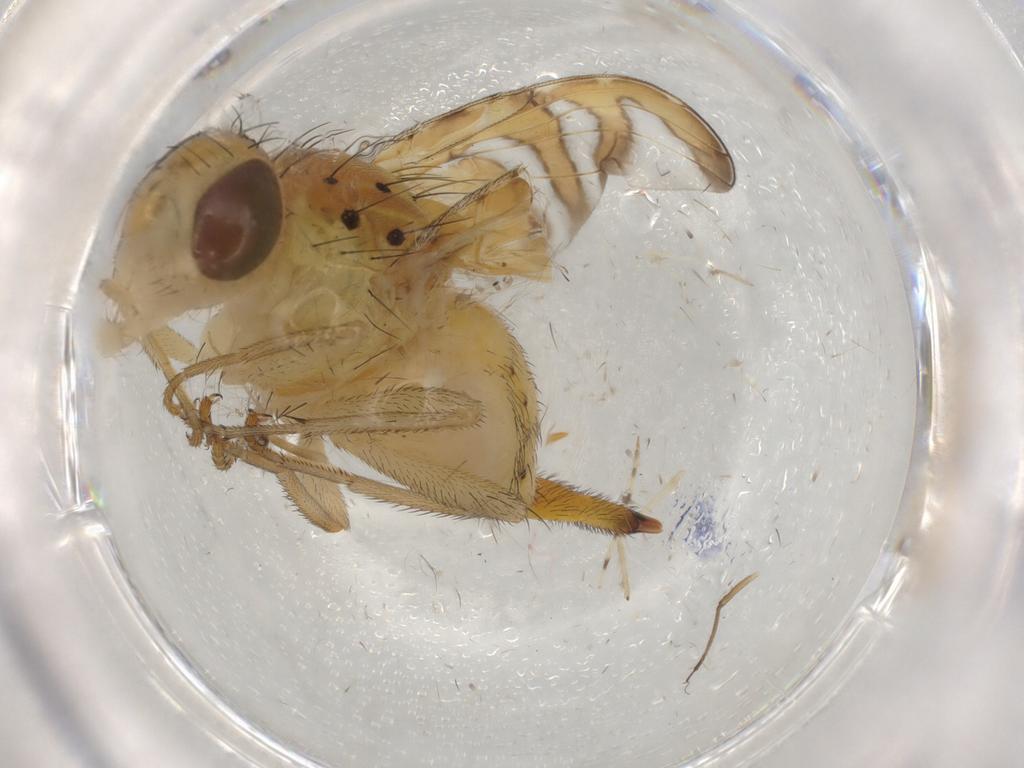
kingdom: Animalia
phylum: Arthropoda
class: Insecta
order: Diptera
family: Tephritidae
